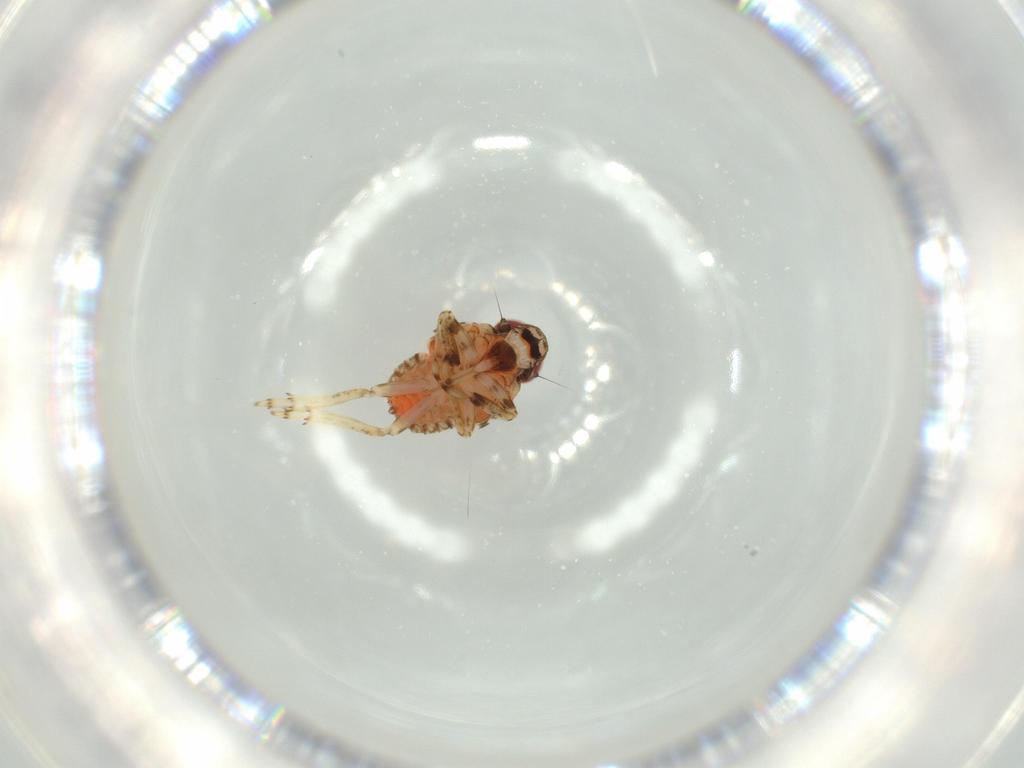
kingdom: Animalia
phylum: Arthropoda
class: Insecta
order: Hemiptera
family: Issidae
